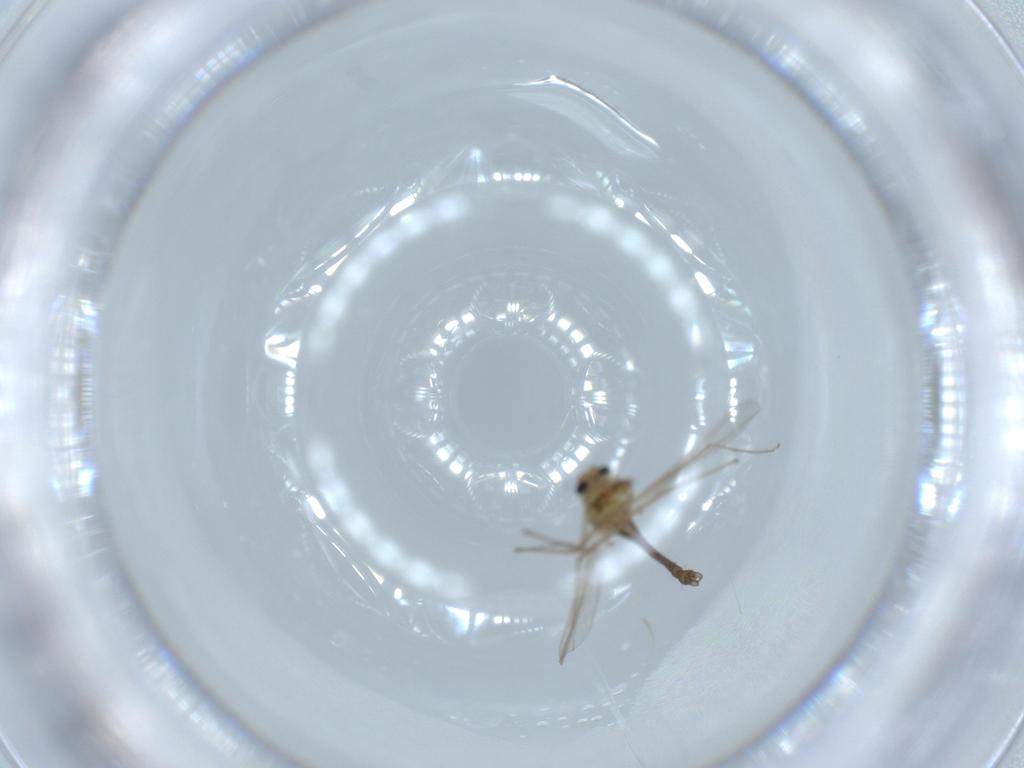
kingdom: Animalia
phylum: Arthropoda
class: Insecta
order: Diptera
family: Chironomidae
